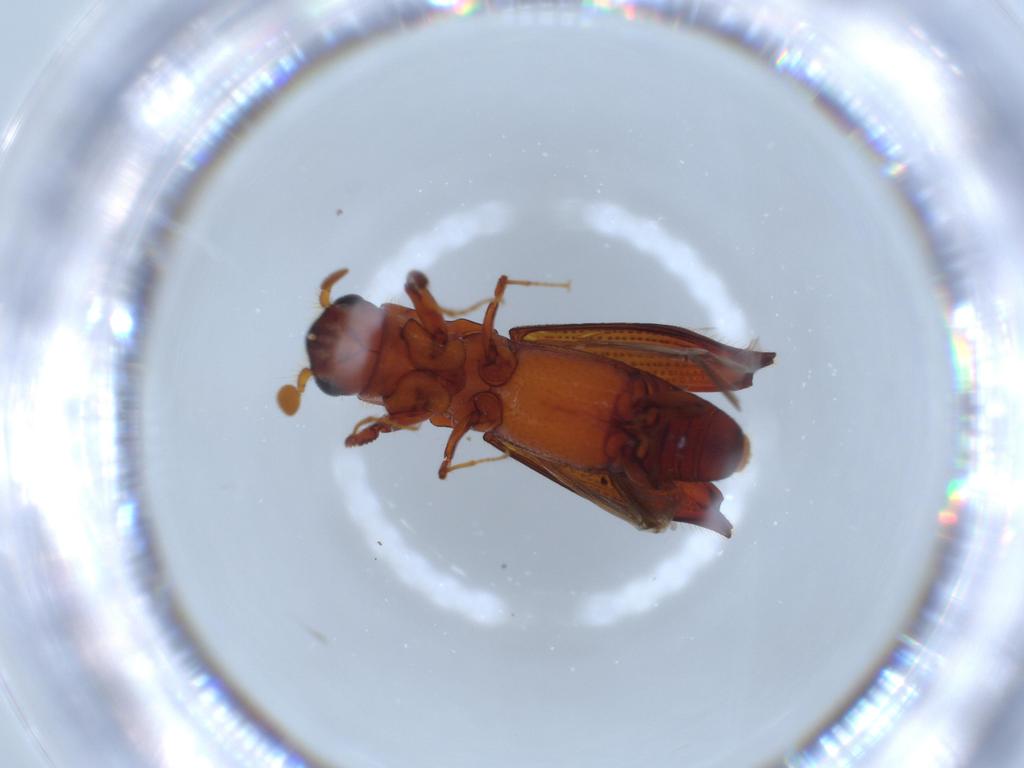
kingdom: Animalia
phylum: Arthropoda
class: Insecta
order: Coleoptera
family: Curculionidae
